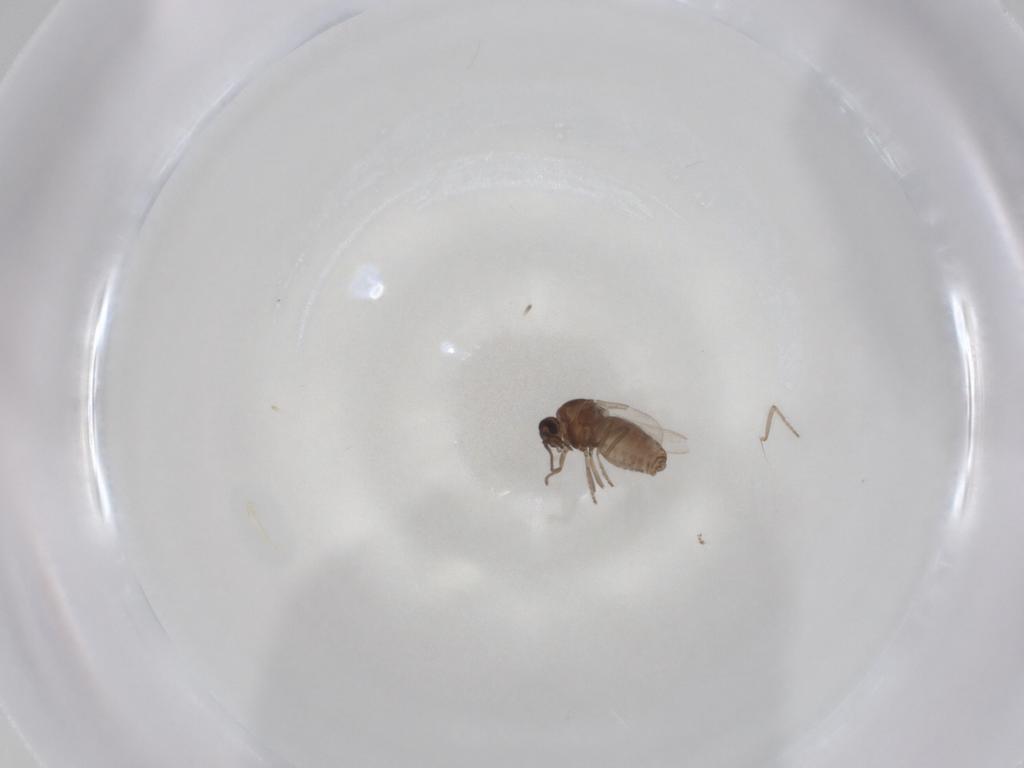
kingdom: Animalia
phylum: Arthropoda
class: Insecta
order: Diptera
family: Ceratopogonidae
